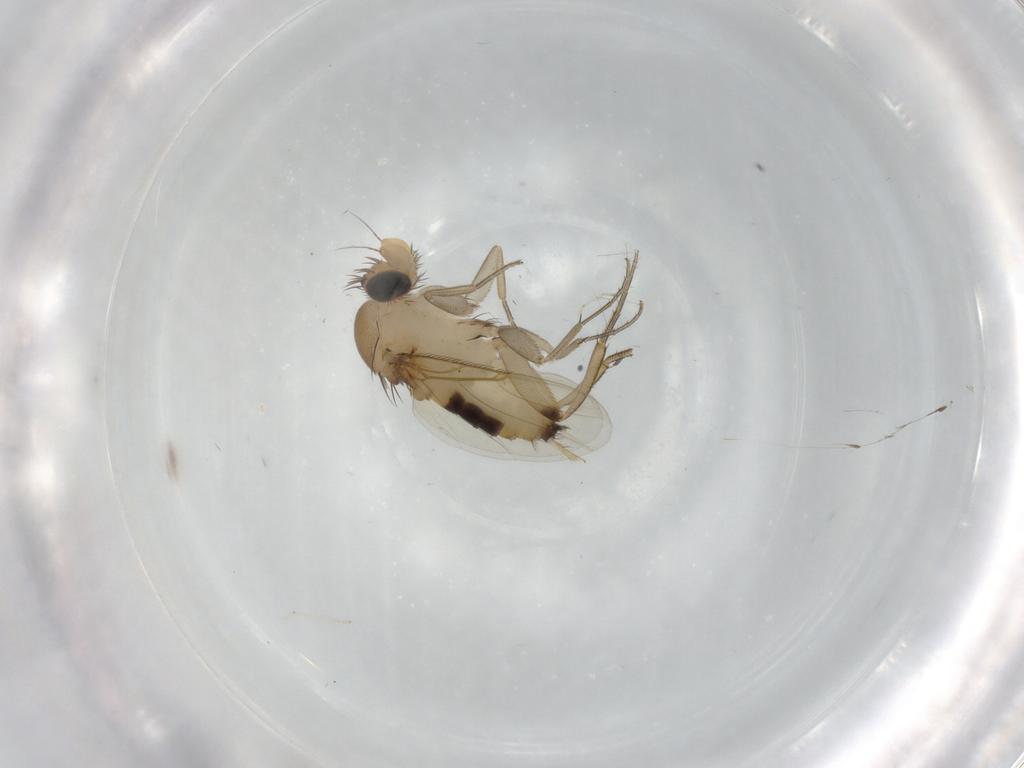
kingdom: Animalia
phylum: Arthropoda
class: Insecta
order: Diptera
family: Phoridae
